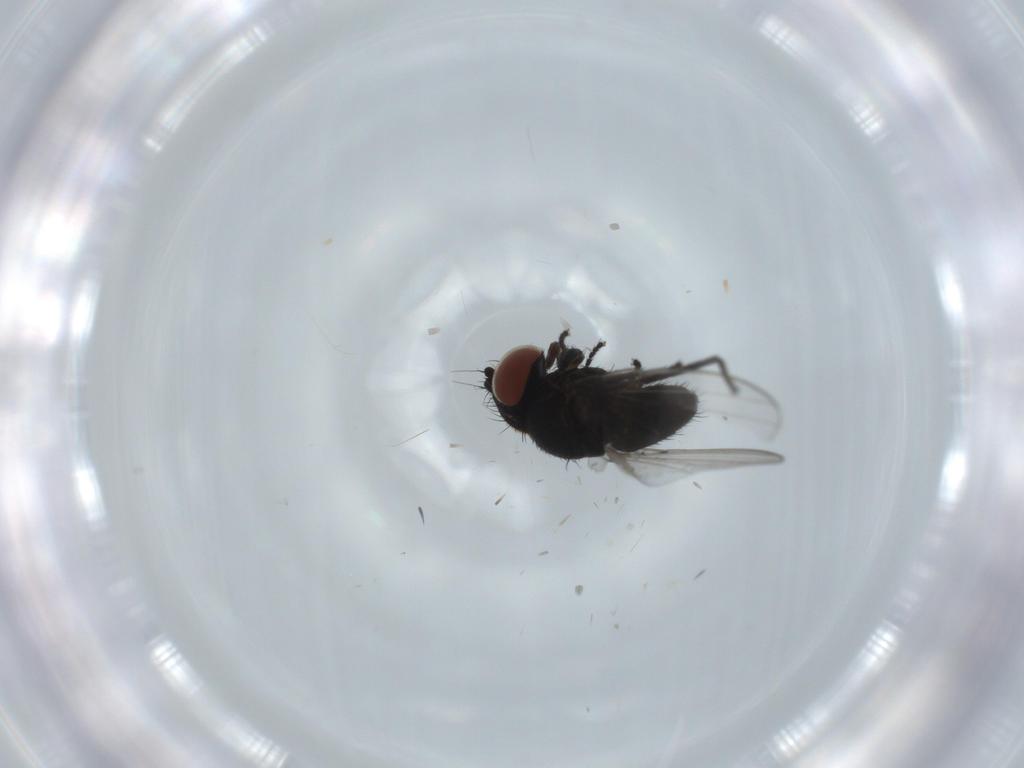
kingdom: Animalia
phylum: Arthropoda
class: Insecta
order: Diptera
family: Milichiidae
